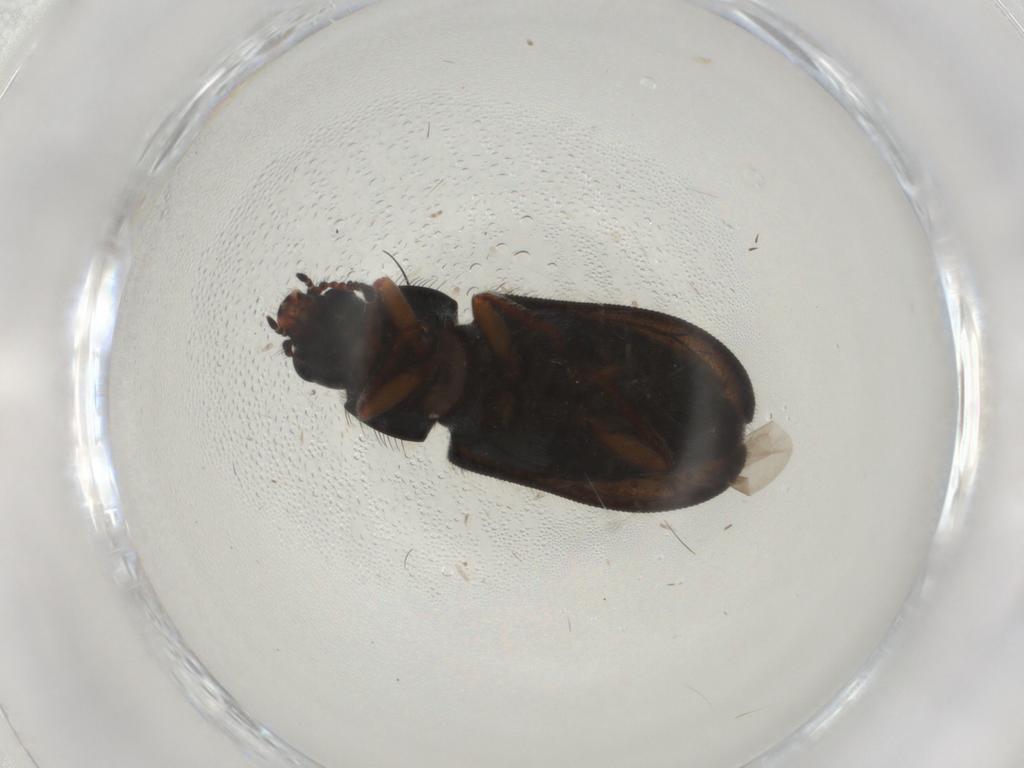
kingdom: Animalia
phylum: Arthropoda
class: Insecta
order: Coleoptera
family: Melyridae
